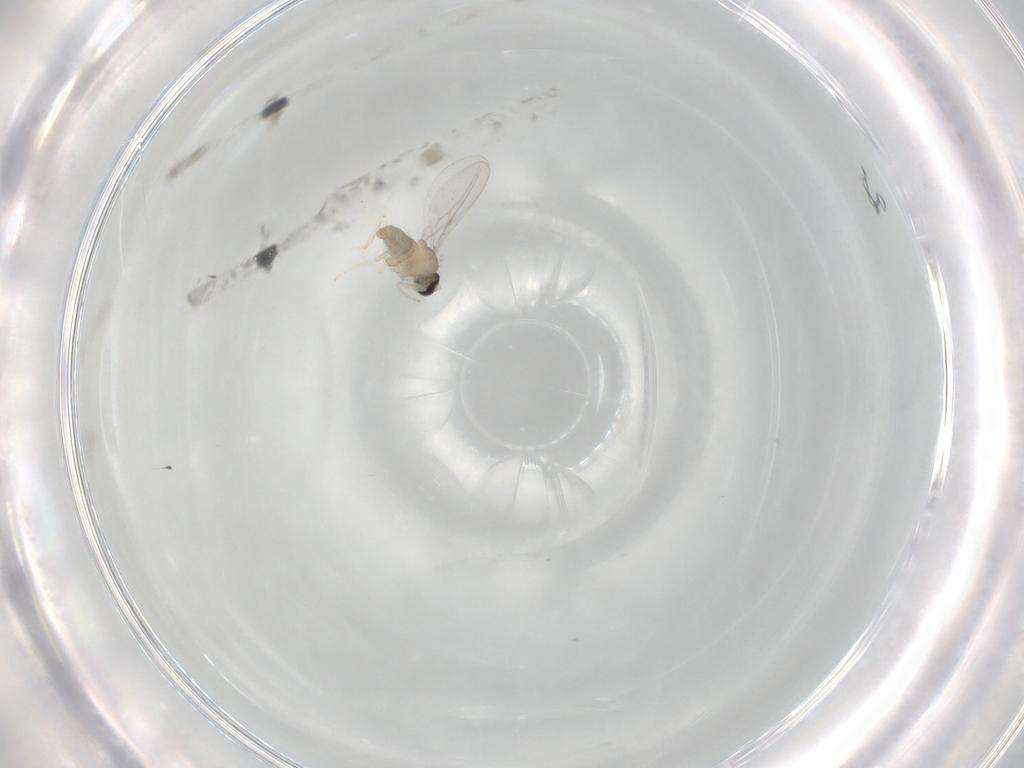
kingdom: Animalia
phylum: Arthropoda
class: Insecta
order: Diptera
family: Cecidomyiidae
